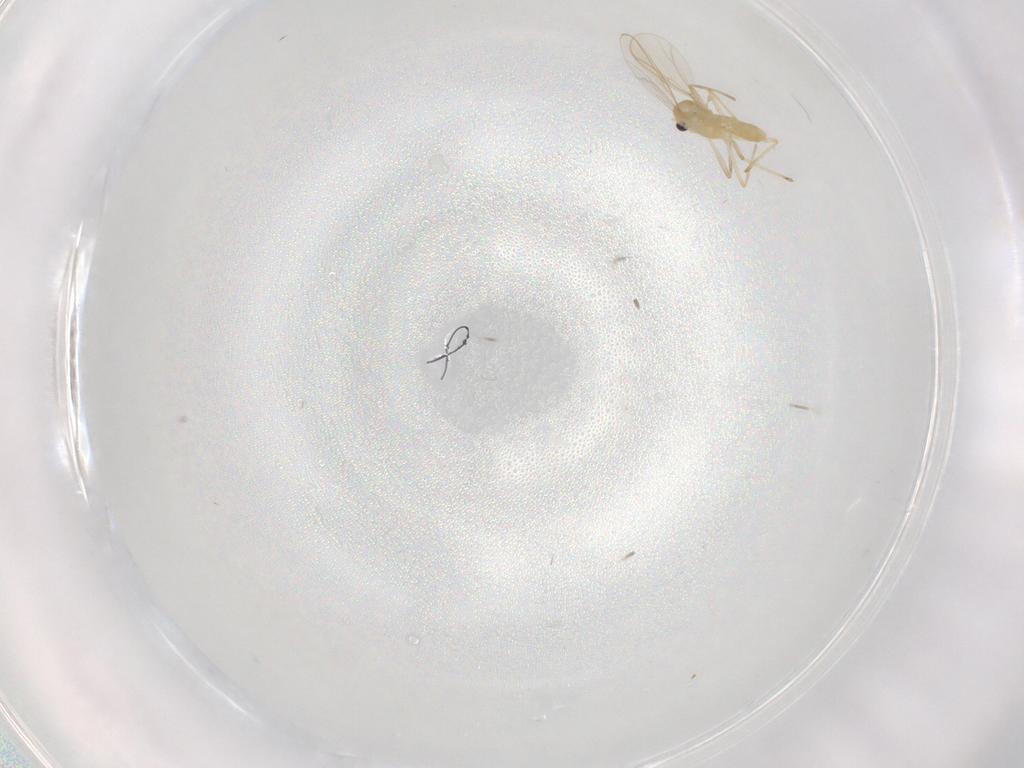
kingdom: Animalia
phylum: Arthropoda
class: Insecta
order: Diptera
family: Chironomidae
